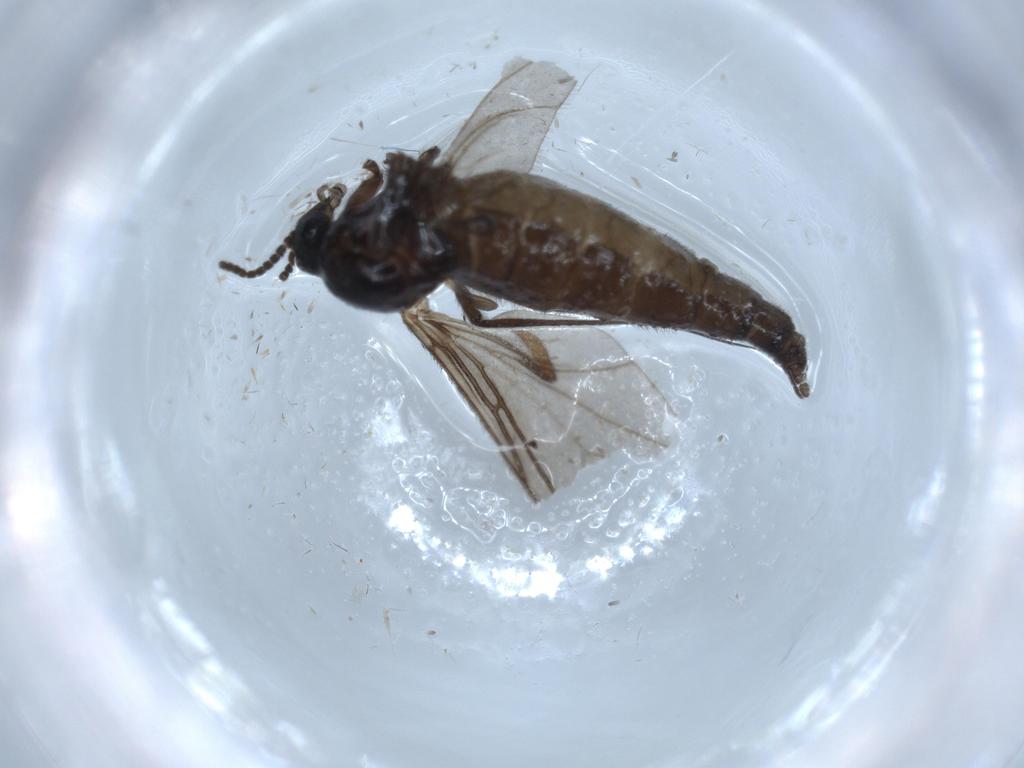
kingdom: Animalia
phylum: Arthropoda
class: Insecta
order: Diptera
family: Sciaridae
